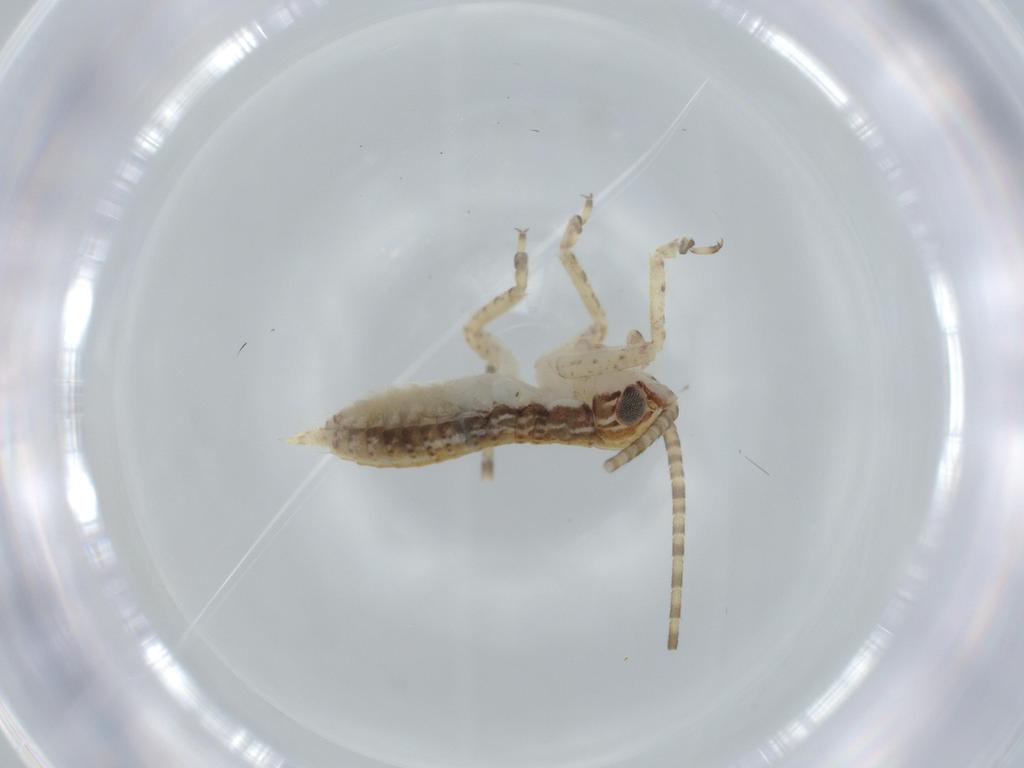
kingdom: Animalia
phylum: Arthropoda
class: Insecta
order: Orthoptera
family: Gryllidae
